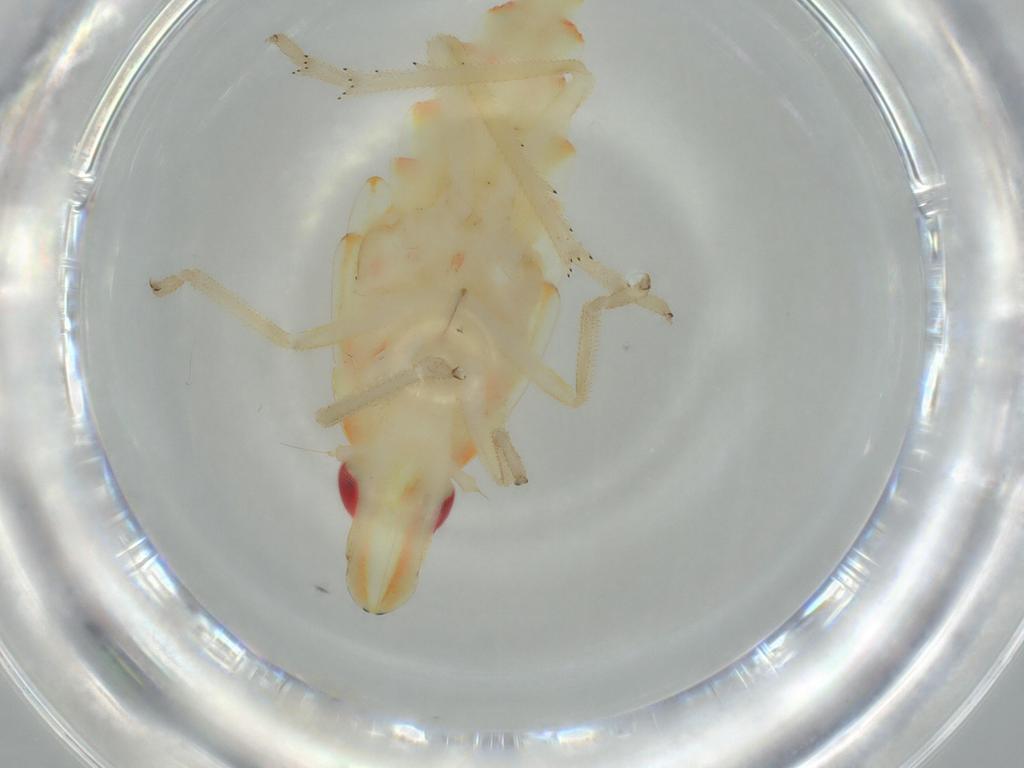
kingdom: Animalia
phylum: Arthropoda
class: Insecta
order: Hemiptera
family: Tropiduchidae
